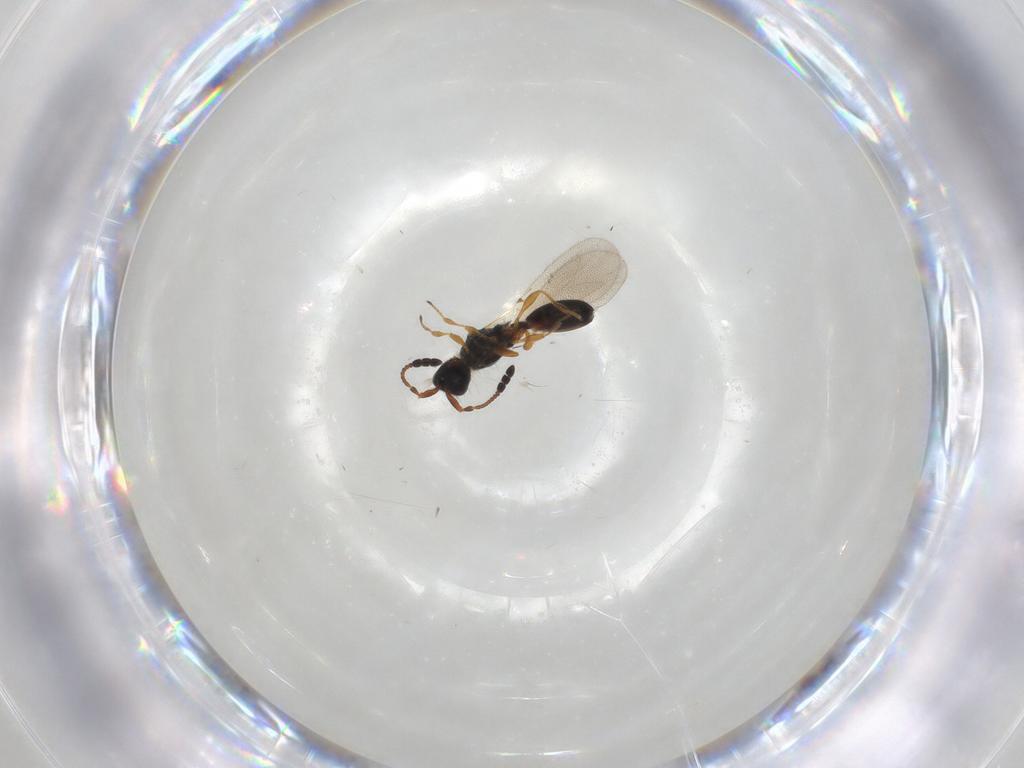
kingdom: Animalia
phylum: Arthropoda
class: Insecta
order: Hymenoptera
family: Diapriidae
